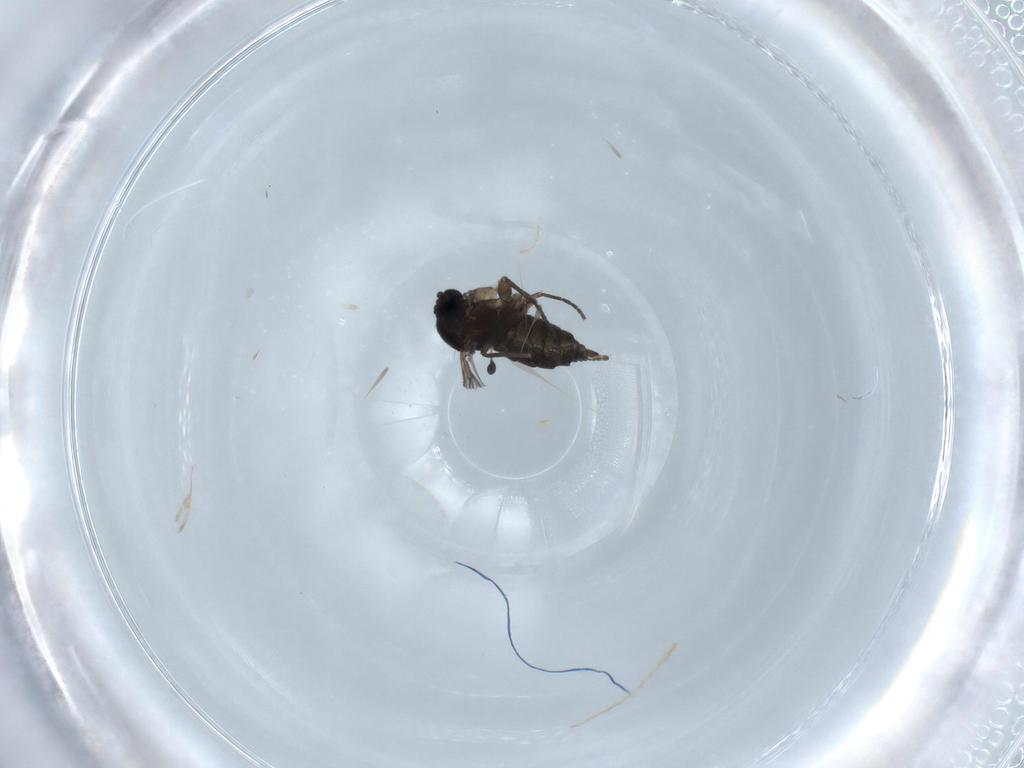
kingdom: Animalia
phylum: Arthropoda
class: Insecta
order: Diptera
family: Sciaridae
